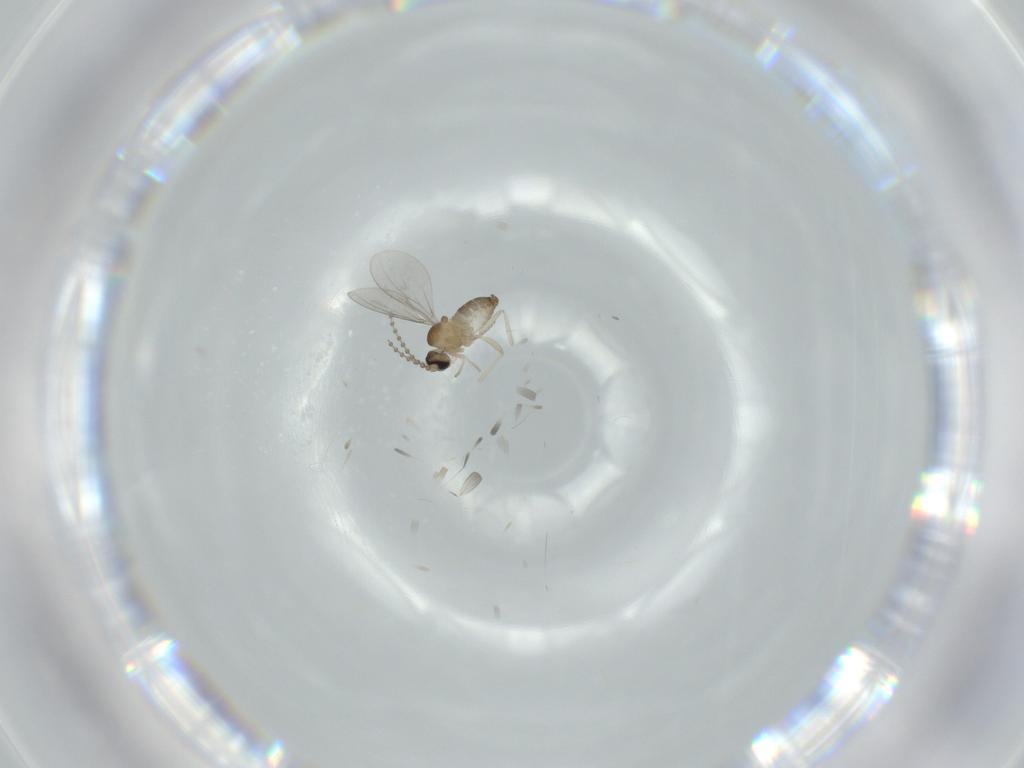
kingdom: Animalia
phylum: Arthropoda
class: Insecta
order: Diptera
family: Cecidomyiidae
